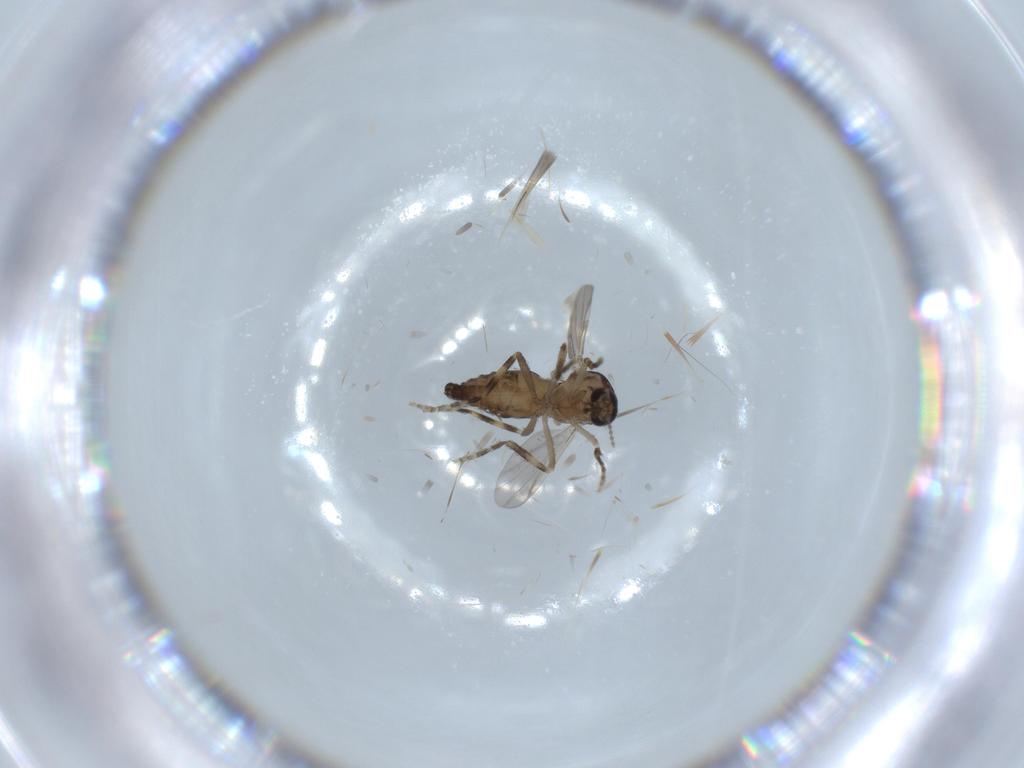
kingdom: Animalia
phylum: Arthropoda
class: Insecta
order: Diptera
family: Ceratopogonidae
